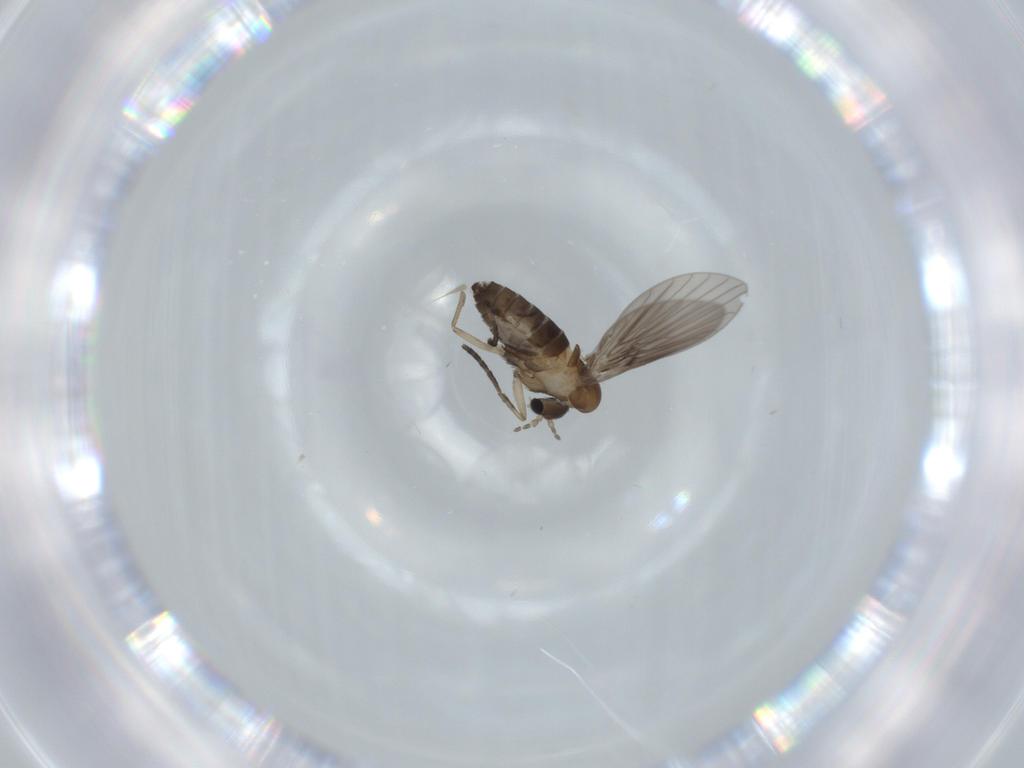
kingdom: Animalia
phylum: Arthropoda
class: Insecta
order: Diptera
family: Psychodidae
